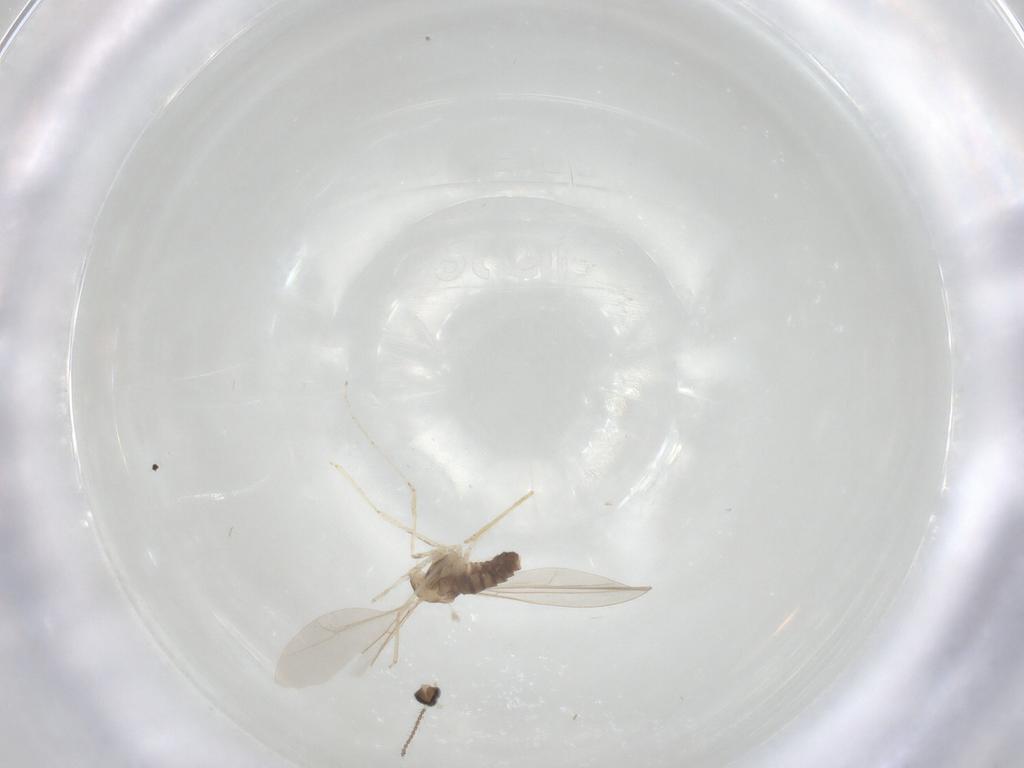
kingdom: Animalia
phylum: Arthropoda
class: Insecta
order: Diptera
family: Cecidomyiidae
